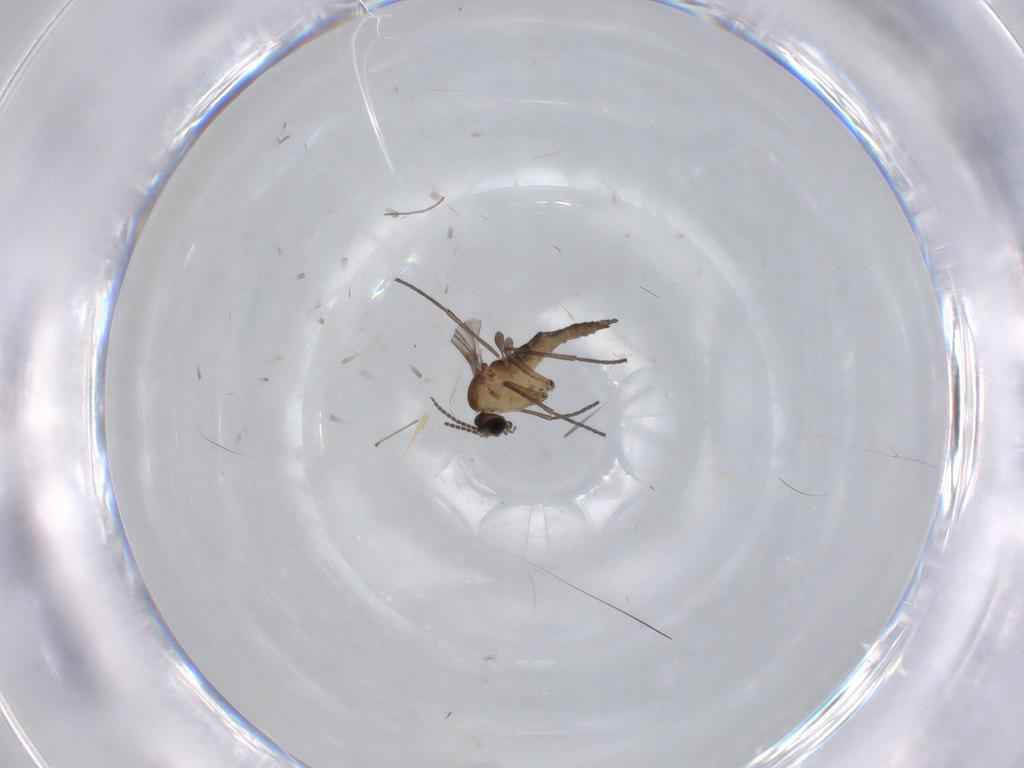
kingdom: Animalia
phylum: Arthropoda
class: Insecta
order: Diptera
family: Sciaridae
